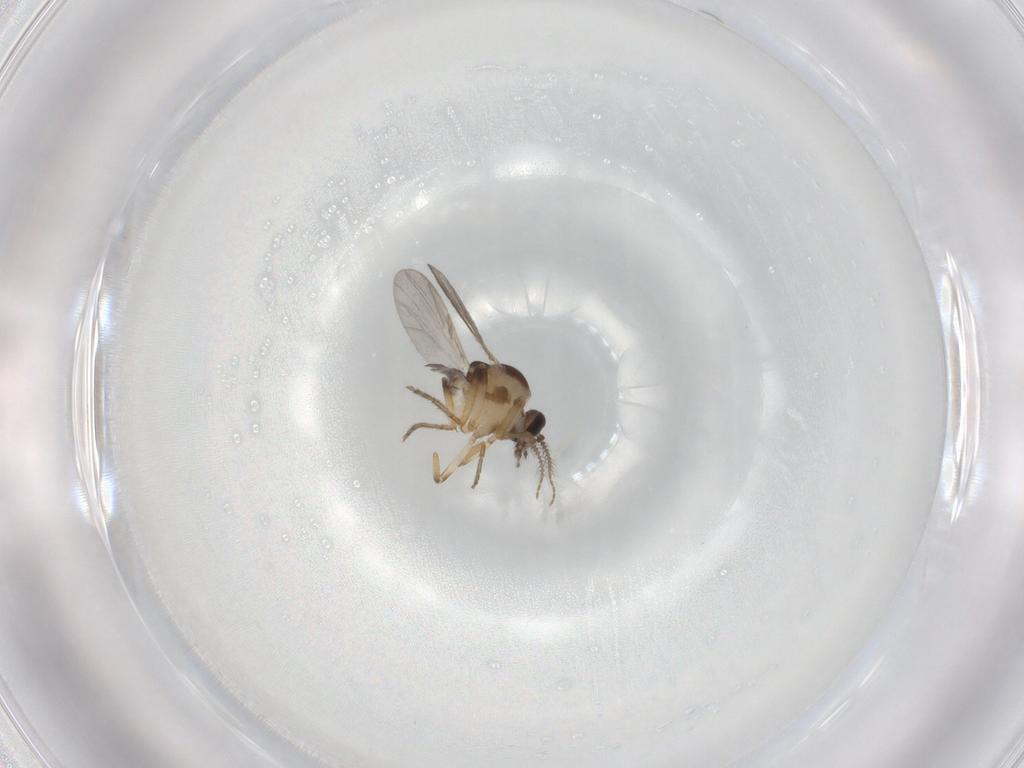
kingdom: Animalia
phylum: Arthropoda
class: Insecta
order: Diptera
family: Ceratopogonidae
